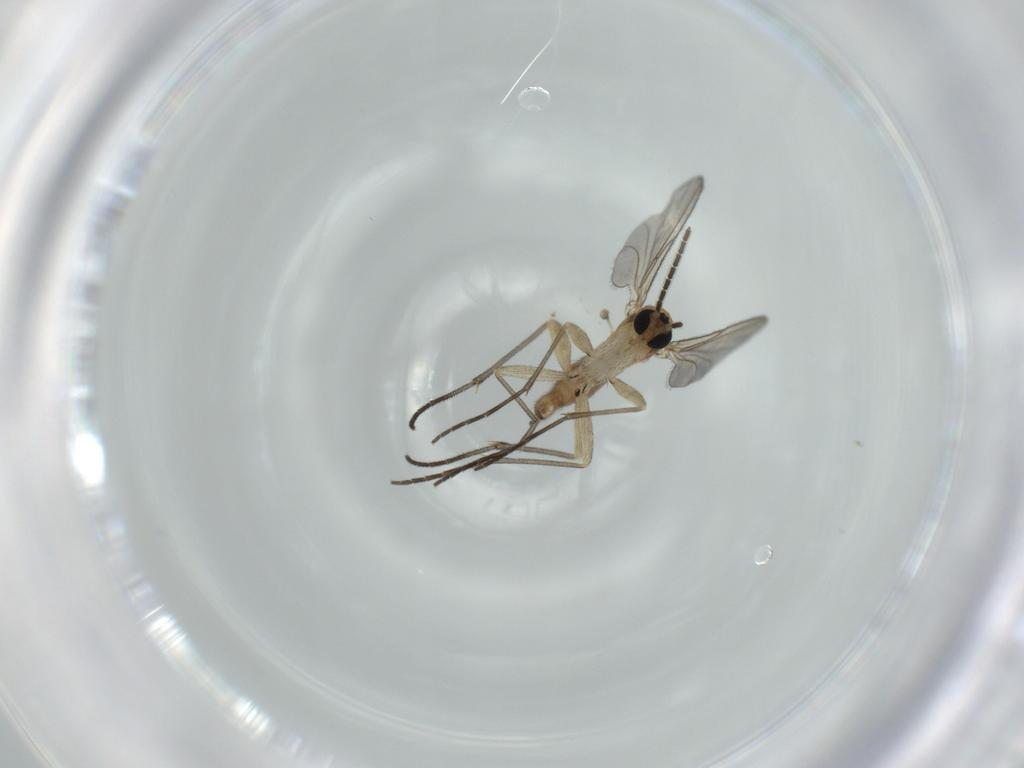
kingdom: Animalia
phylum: Arthropoda
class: Insecta
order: Diptera
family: Sciaridae
